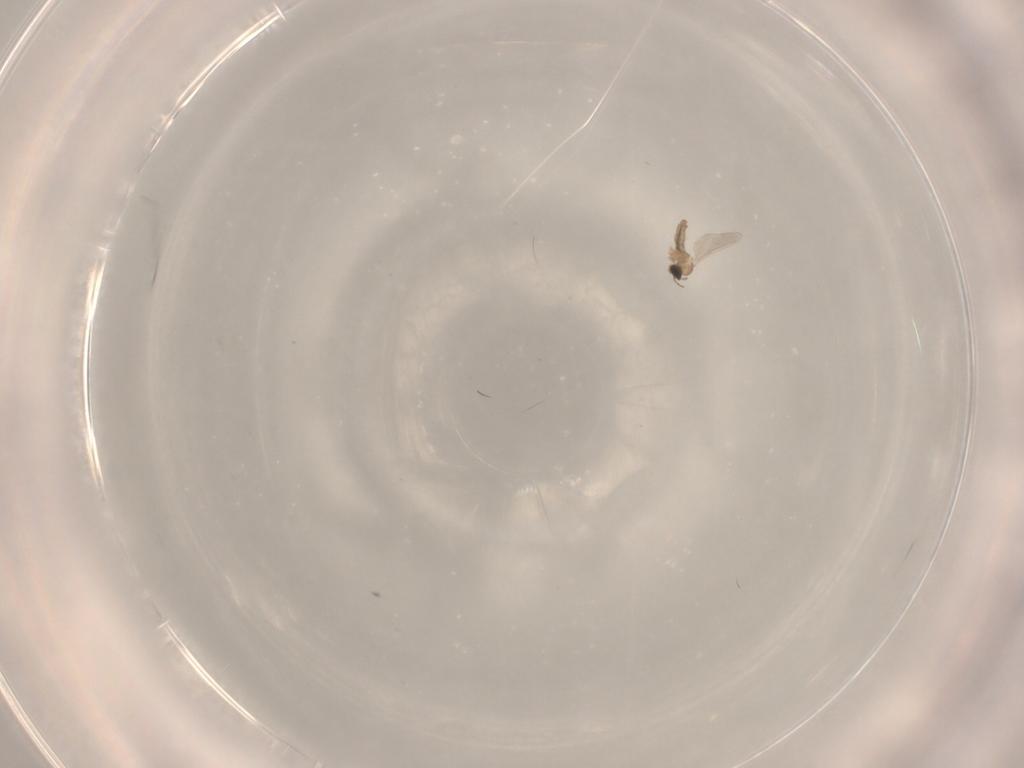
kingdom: Animalia
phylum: Arthropoda
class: Insecta
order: Diptera
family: Cecidomyiidae
